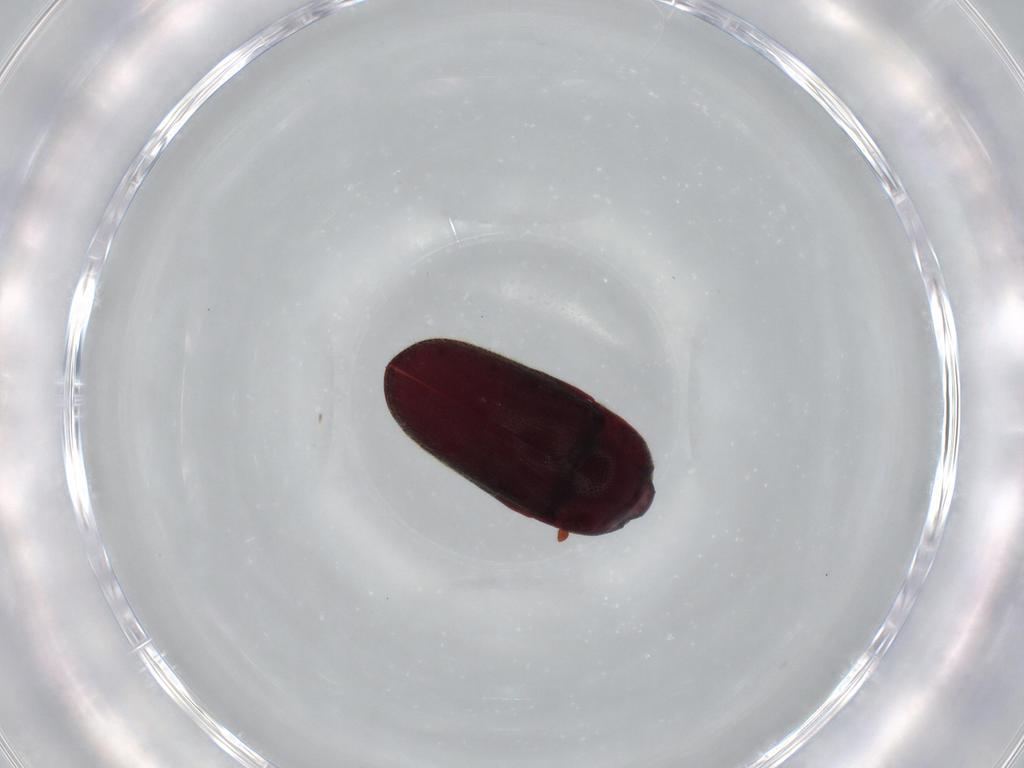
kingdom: Animalia
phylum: Arthropoda
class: Insecta
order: Coleoptera
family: Throscidae
